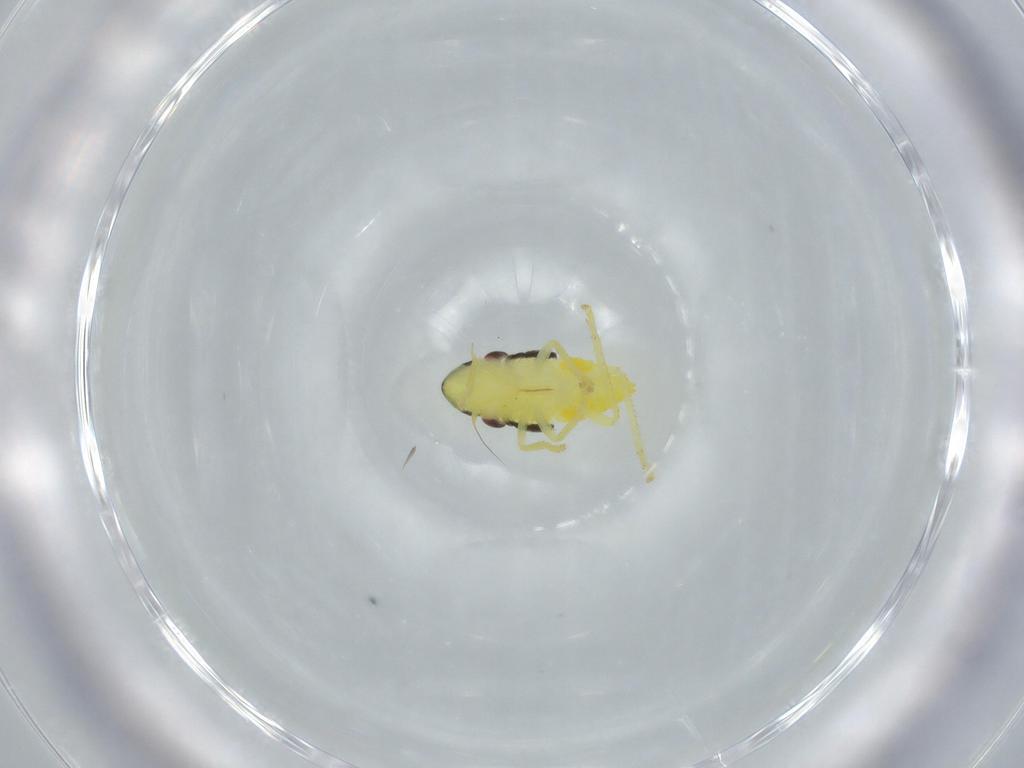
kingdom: Animalia
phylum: Arthropoda
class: Insecta
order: Hemiptera
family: Cicadellidae
